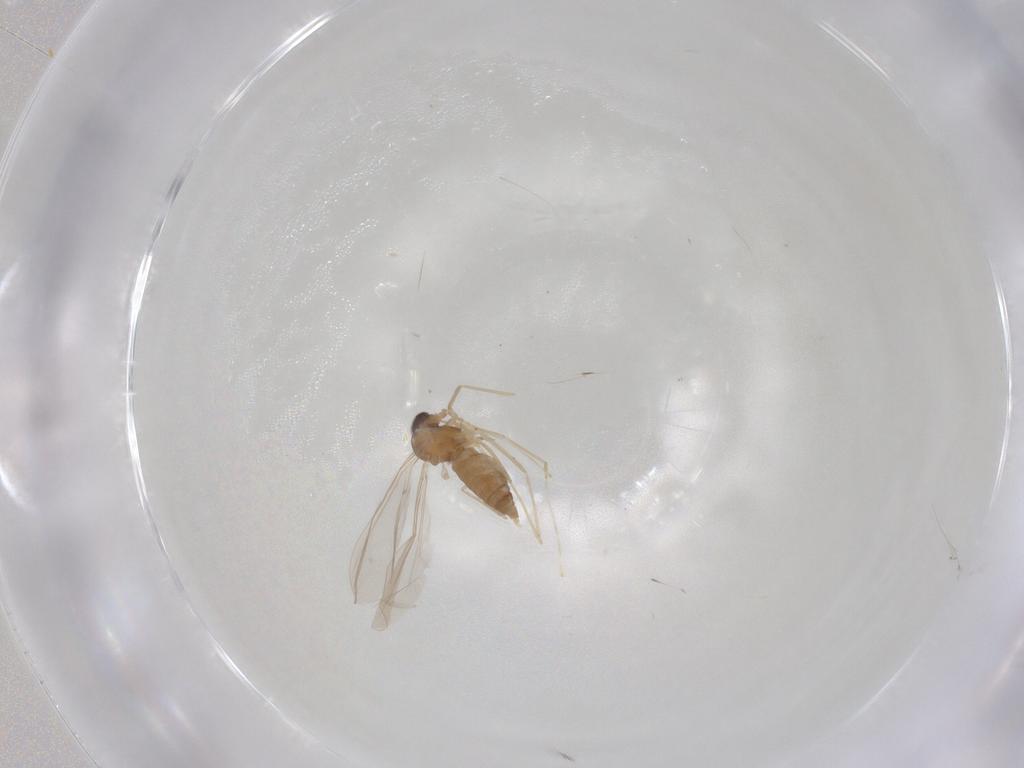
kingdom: Animalia
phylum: Arthropoda
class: Insecta
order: Diptera
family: Cecidomyiidae
